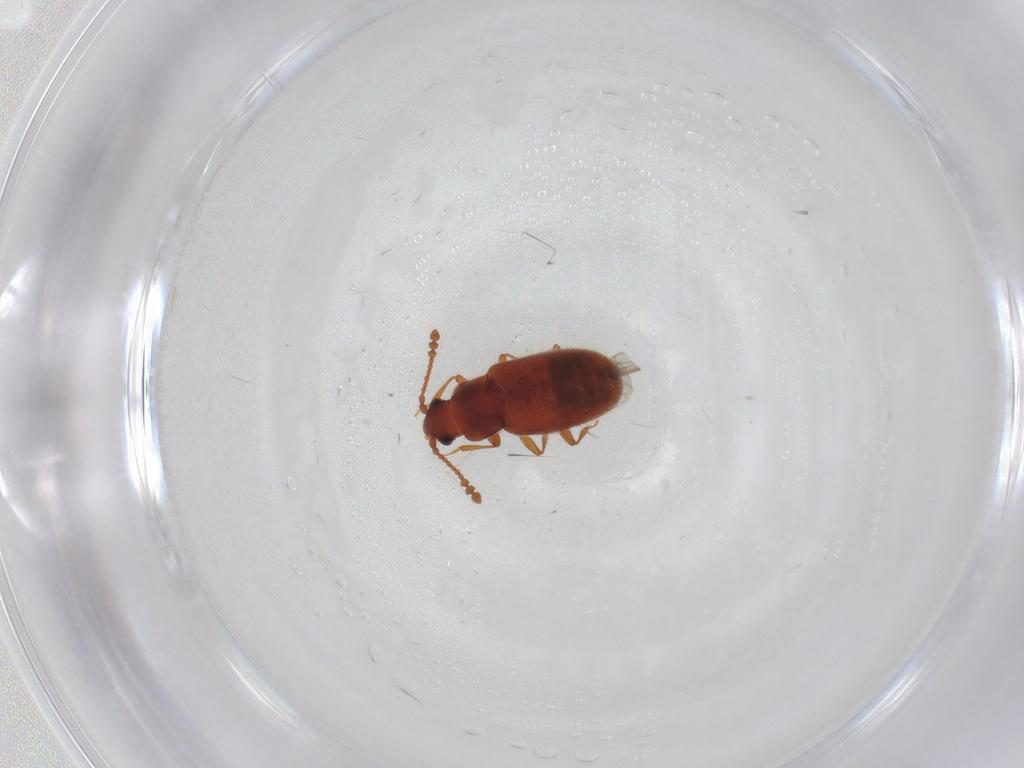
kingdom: Animalia
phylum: Arthropoda
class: Insecta
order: Coleoptera
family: Cryptophagidae
